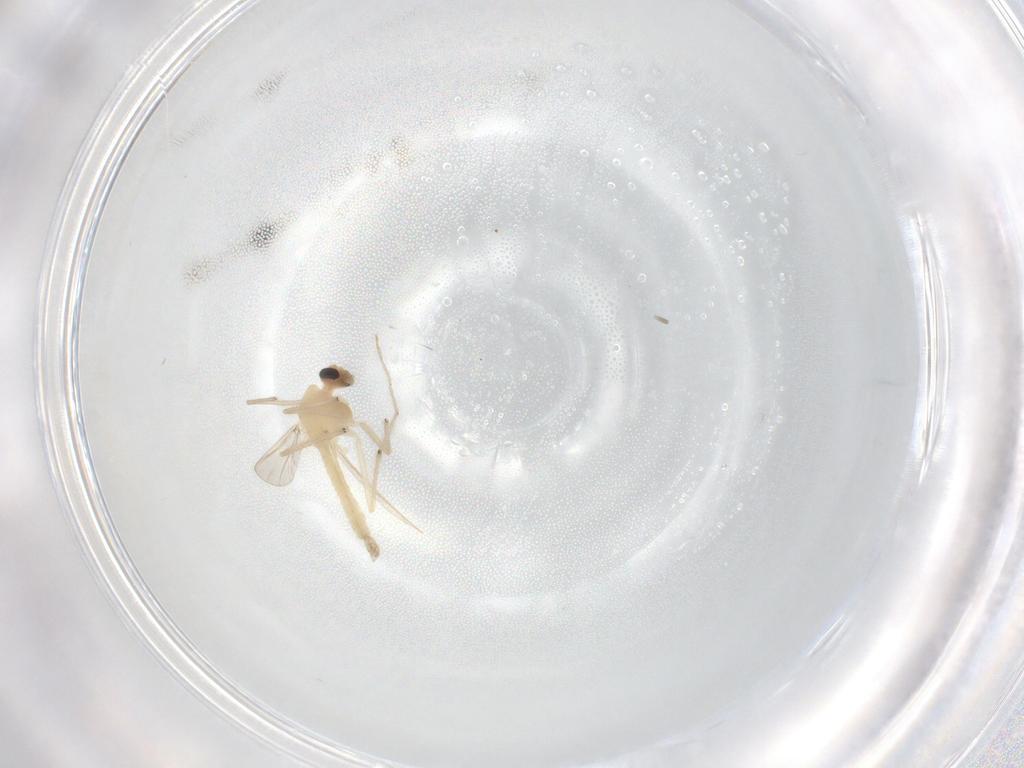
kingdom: Animalia
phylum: Arthropoda
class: Insecta
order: Diptera
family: Chironomidae
